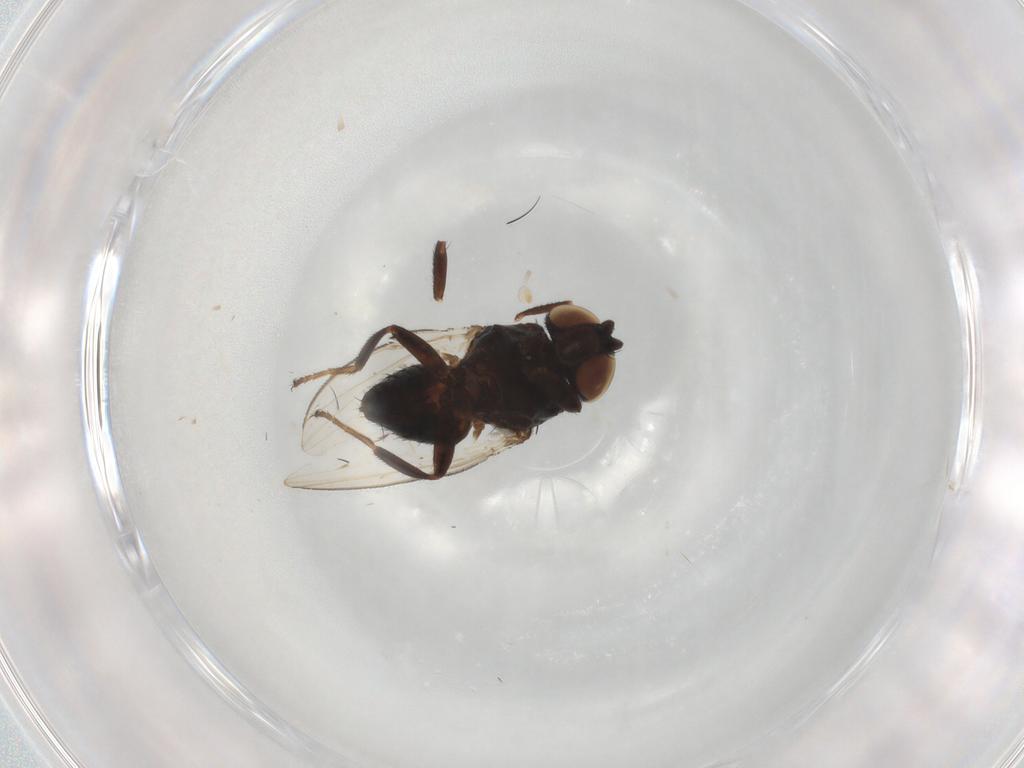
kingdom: Animalia
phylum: Arthropoda
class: Insecta
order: Diptera
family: Milichiidae
